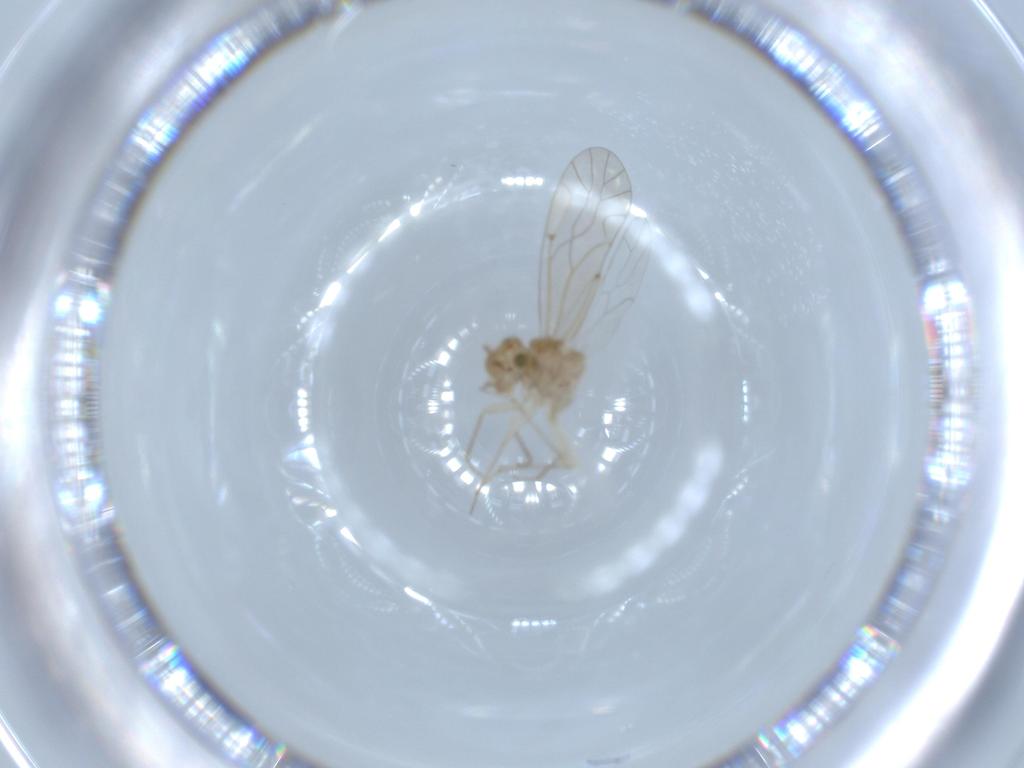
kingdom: Animalia
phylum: Arthropoda
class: Insecta
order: Psocodea
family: Lachesillidae
